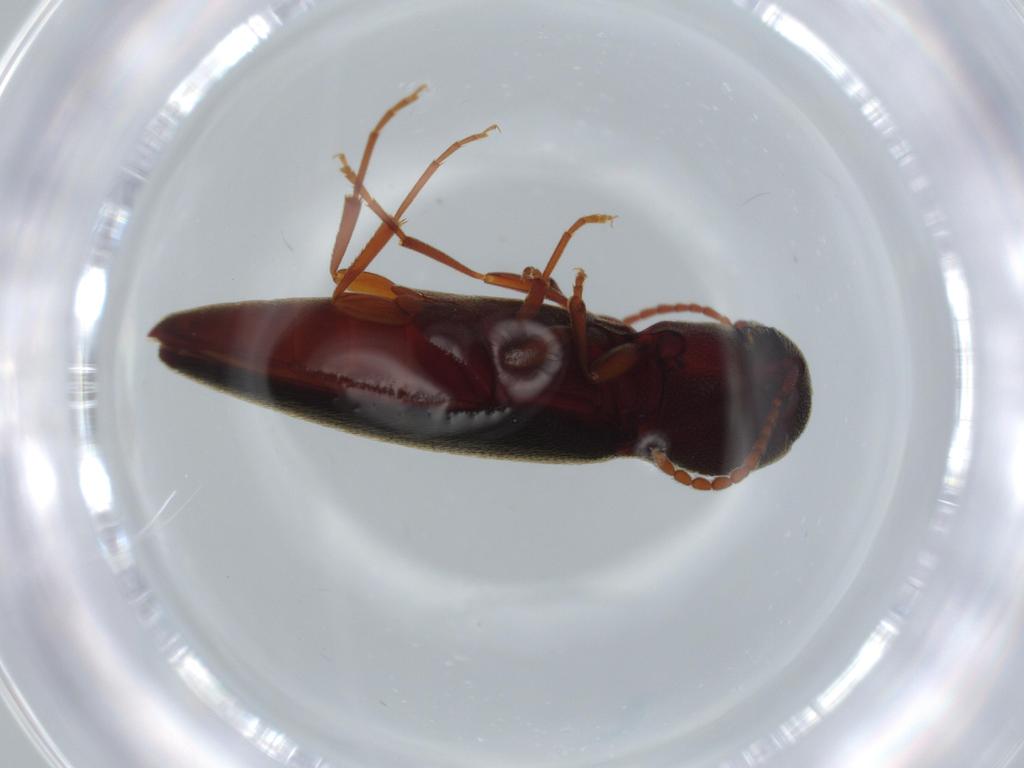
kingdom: Animalia
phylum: Arthropoda
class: Insecta
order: Coleoptera
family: Eucnemidae
